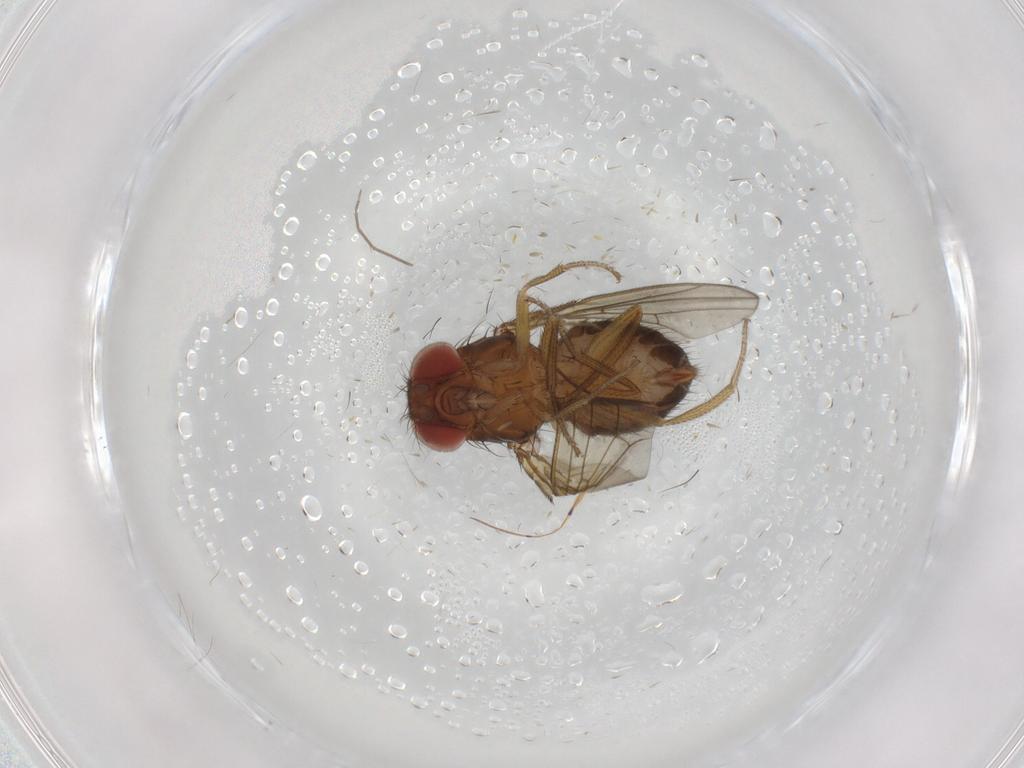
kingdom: Animalia
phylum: Arthropoda
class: Insecta
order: Diptera
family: Drosophilidae
